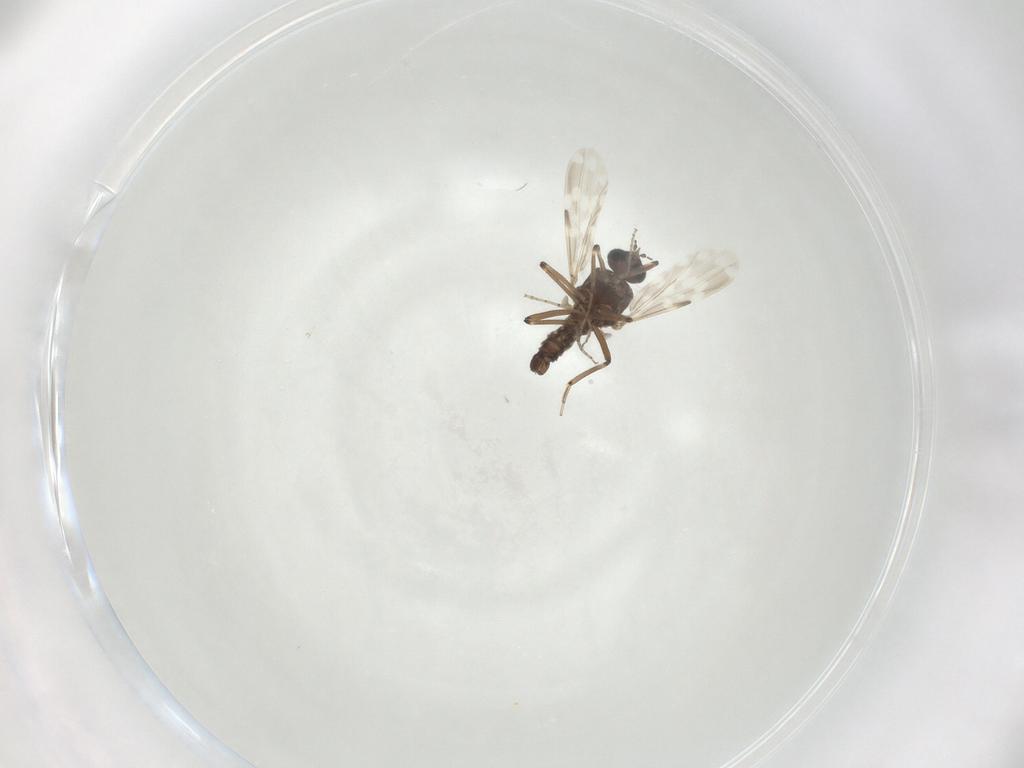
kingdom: Animalia
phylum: Arthropoda
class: Insecta
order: Diptera
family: Ceratopogonidae
